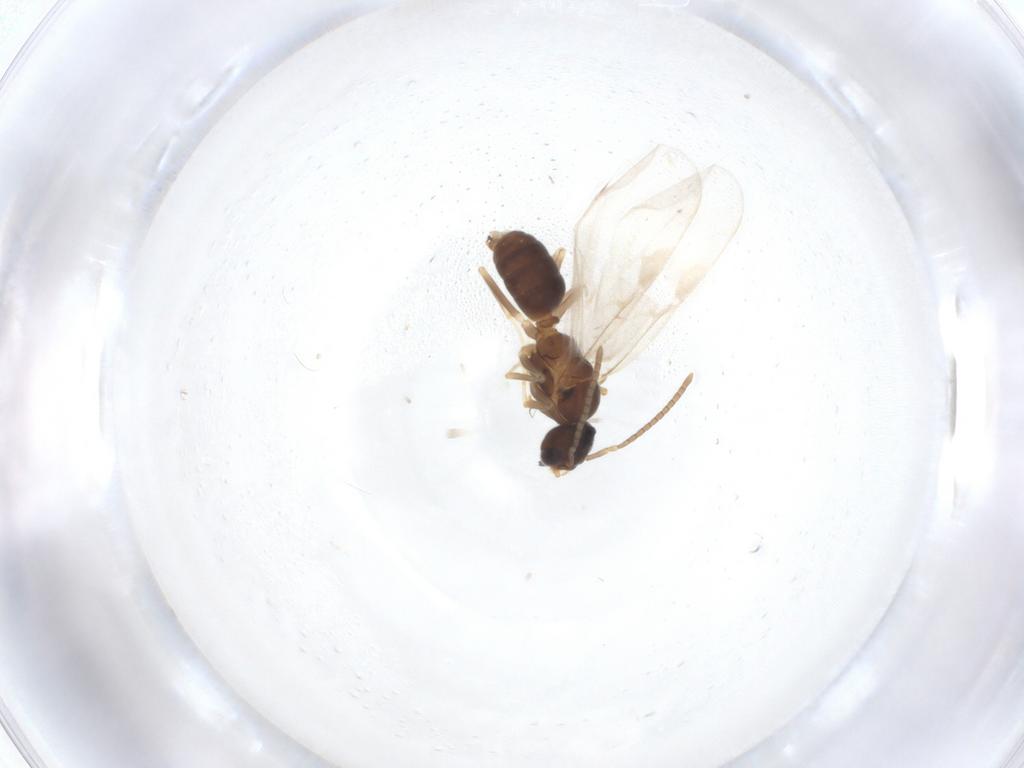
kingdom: Animalia
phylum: Arthropoda
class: Insecta
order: Hymenoptera
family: Formicidae
